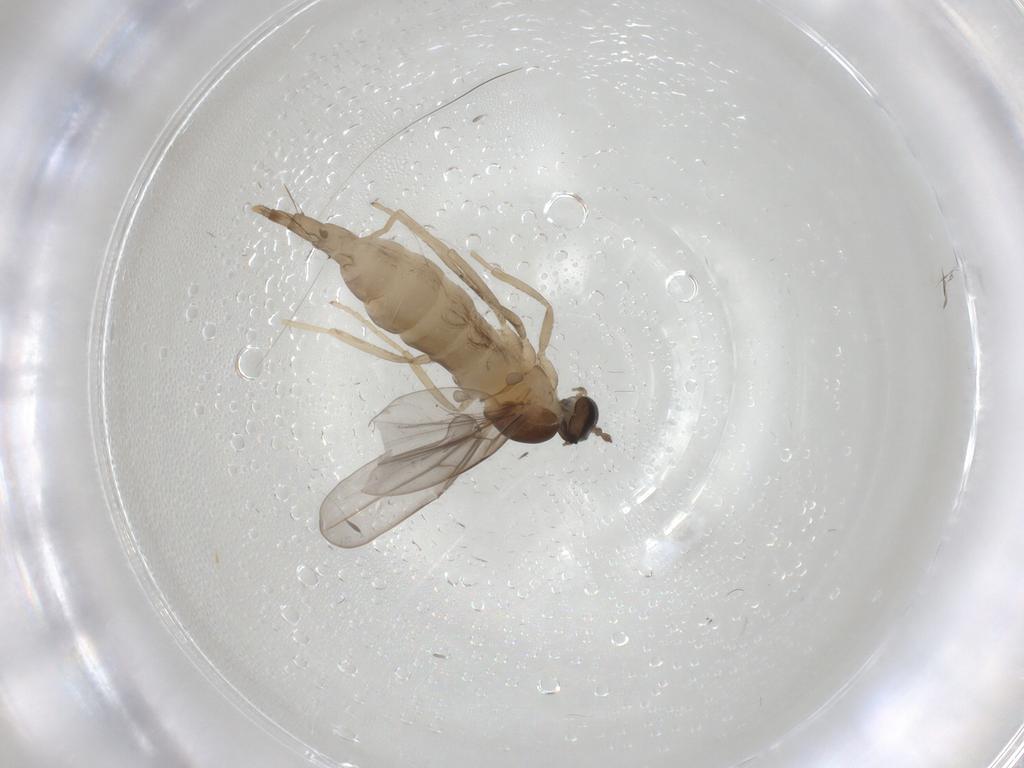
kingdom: Animalia
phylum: Arthropoda
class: Insecta
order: Diptera
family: Cecidomyiidae
